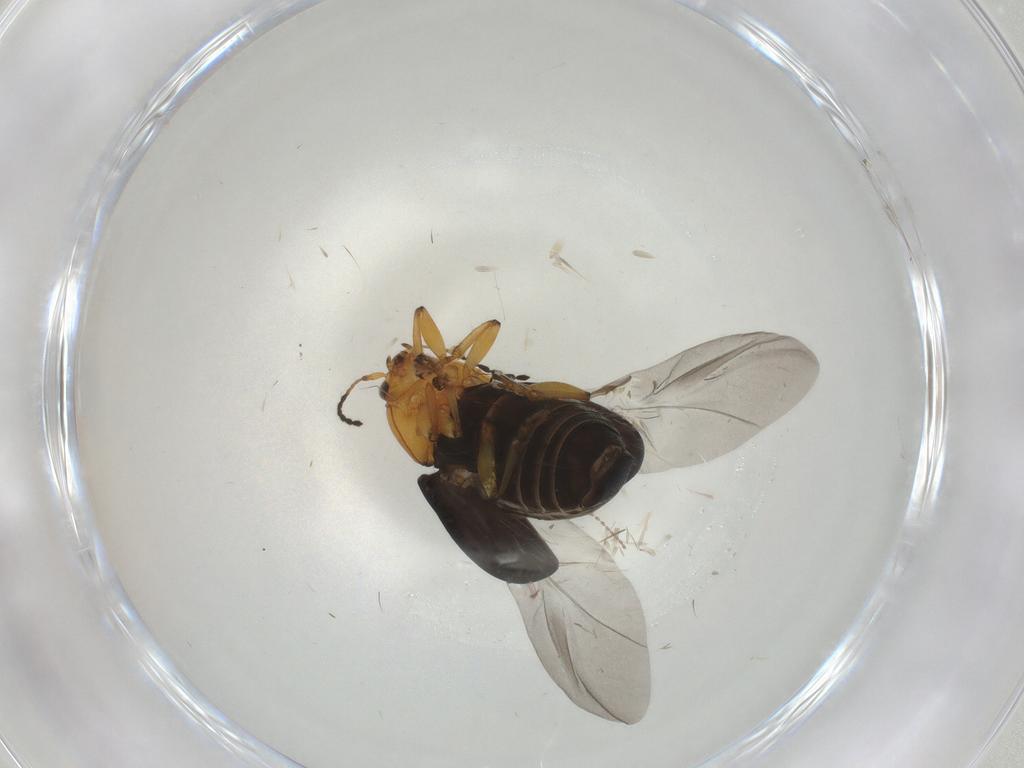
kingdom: Animalia
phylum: Arthropoda
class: Insecta
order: Coleoptera
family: Chrysomelidae
